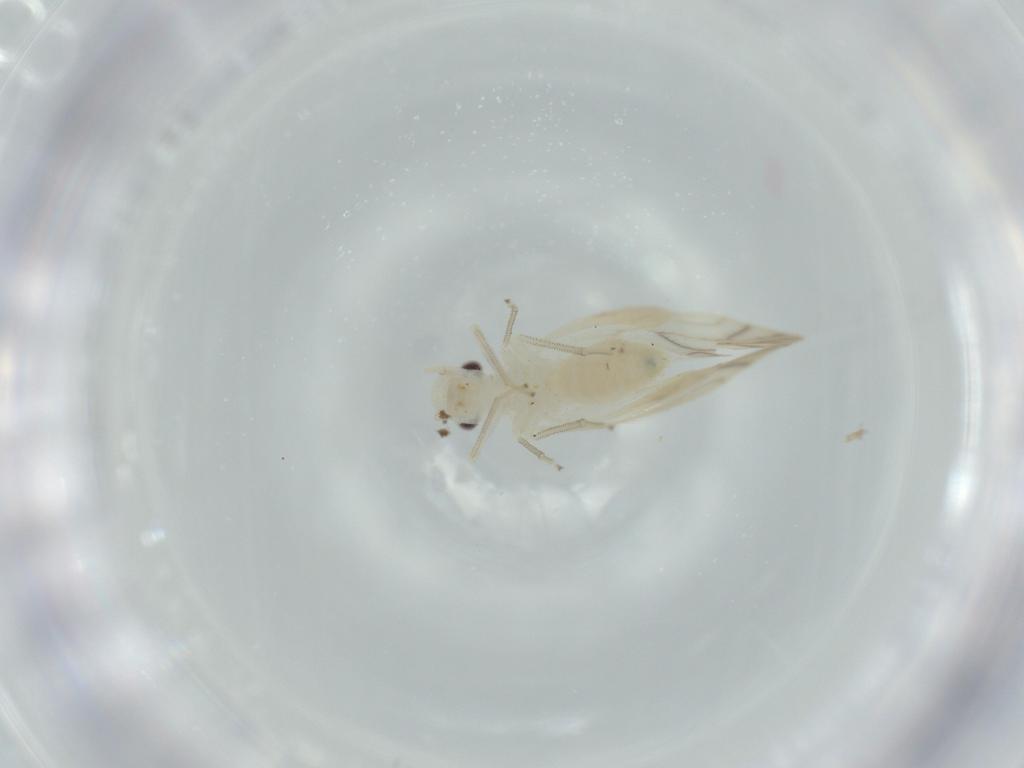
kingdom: Animalia
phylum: Arthropoda
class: Insecta
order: Psocodea
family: Caeciliusidae
